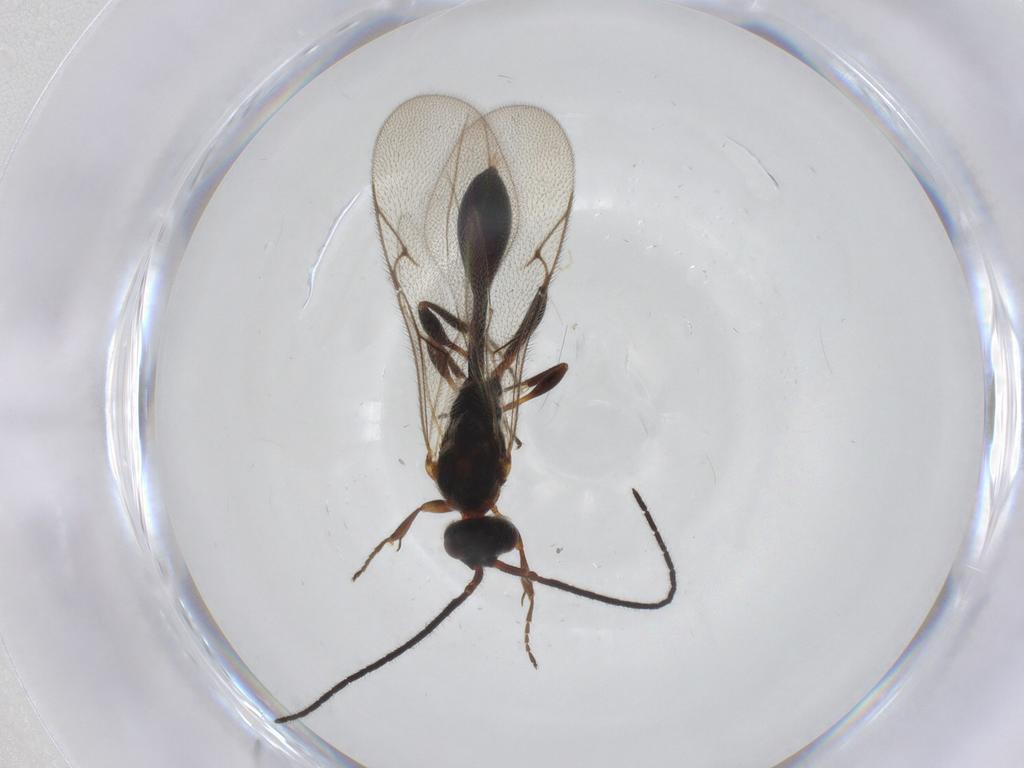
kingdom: Animalia
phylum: Arthropoda
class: Insecta
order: Hymenoptera
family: Braconidae
